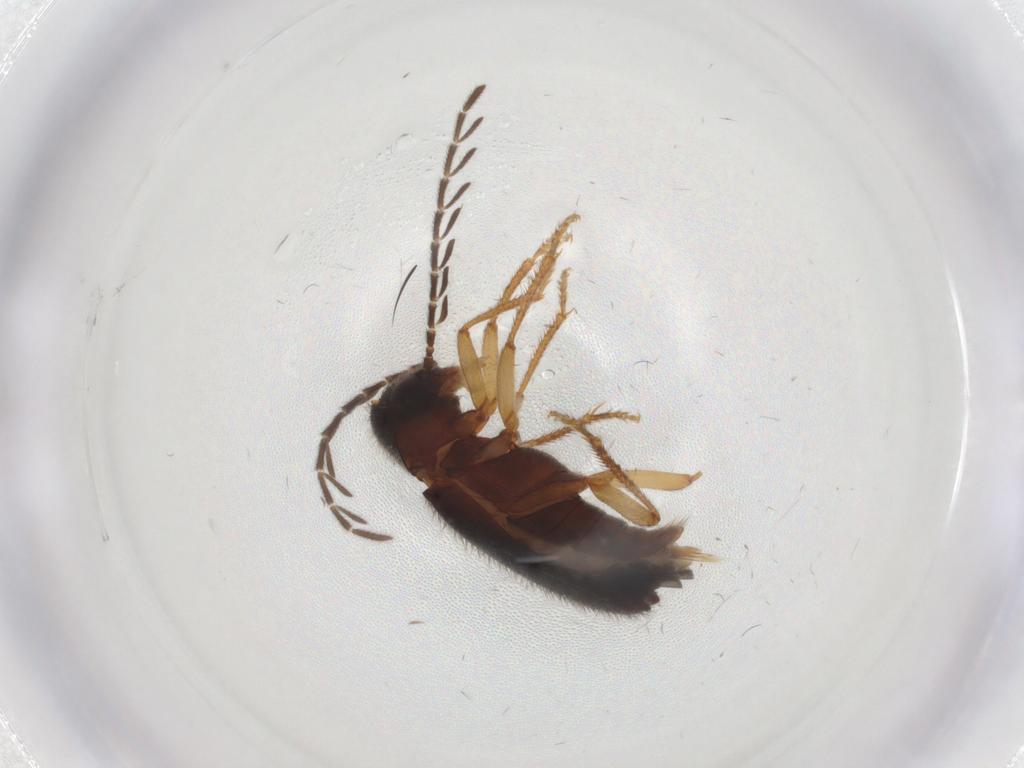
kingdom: Animalia
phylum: Arthropoda
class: Insecta
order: Coleoptera
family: Ptilodactylidae
